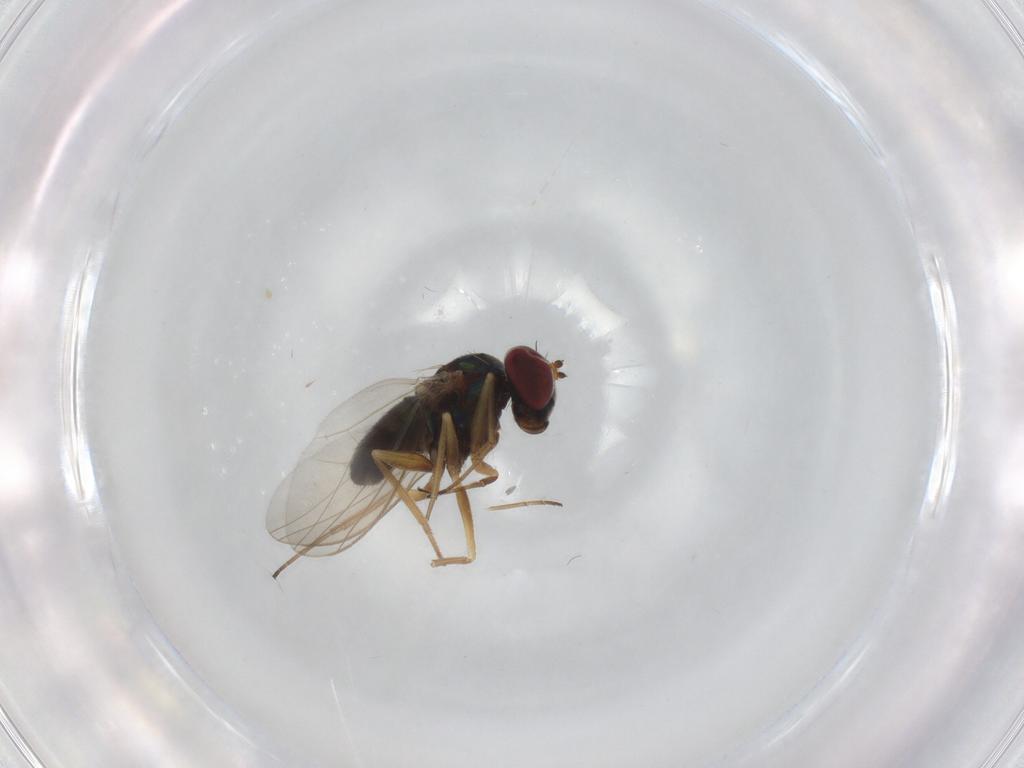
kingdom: Animalia
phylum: Arthropoda
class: Insecta
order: Diptera
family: Dolichopodidae
